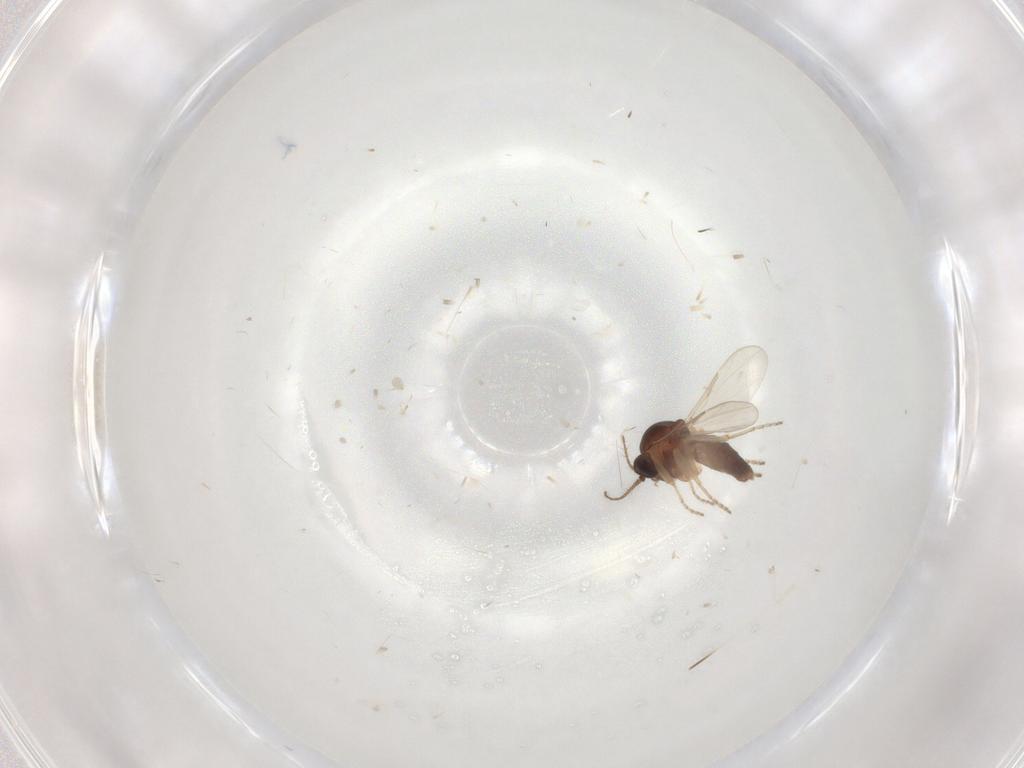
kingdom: Animalia
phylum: Arthropoda
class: Insecta
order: Diptera
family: Ceratopogonidae
